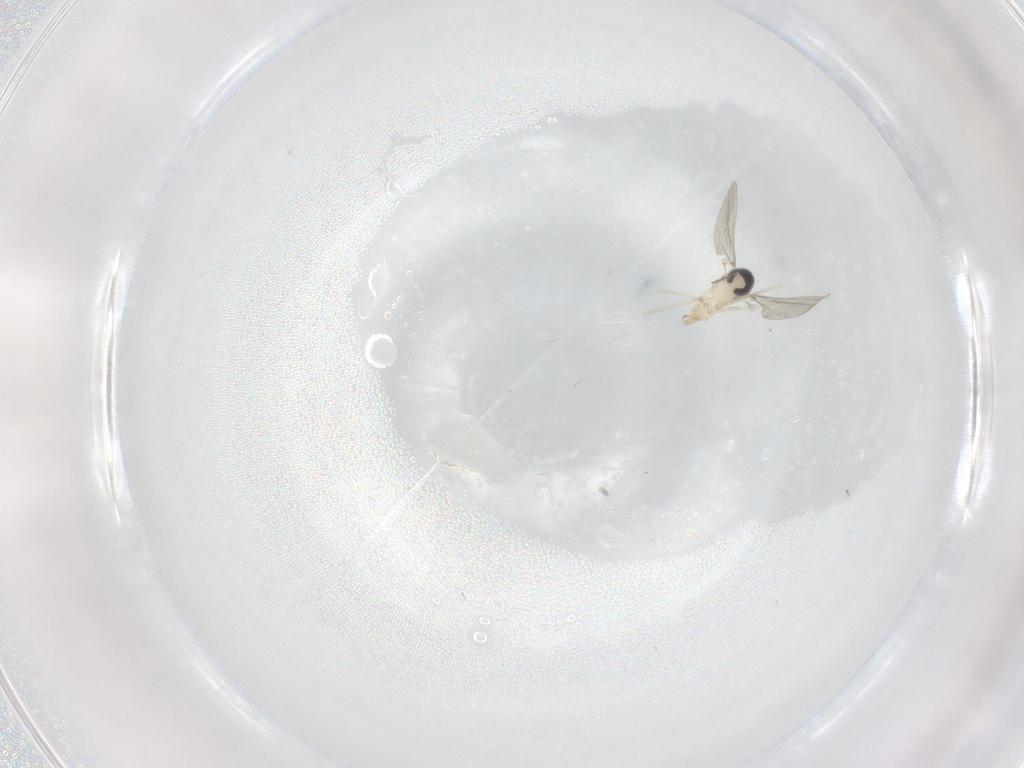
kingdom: Animalia
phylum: Arthropoda
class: Insecta
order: Diptera
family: Cecidomyiidae
